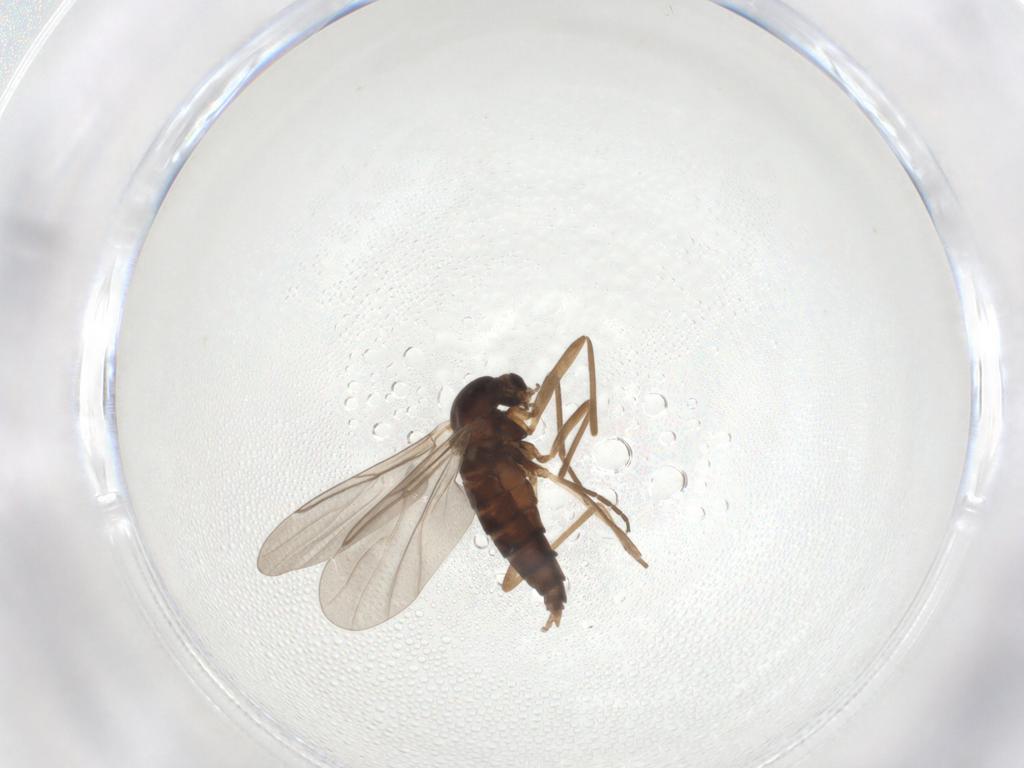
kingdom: Animalia
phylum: Arthropoda
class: Insecta
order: Diptera
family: Cecidomyiidae
